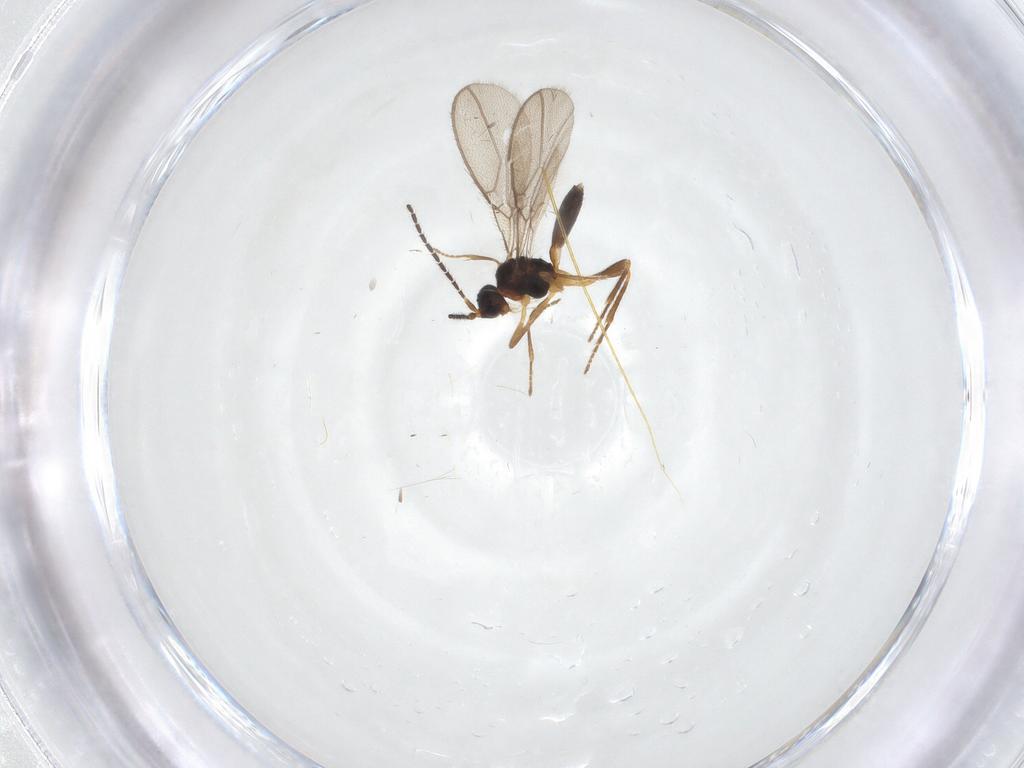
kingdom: Animalia
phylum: Arthropoda
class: Insecta
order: Hymenoptera
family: Braconidae
